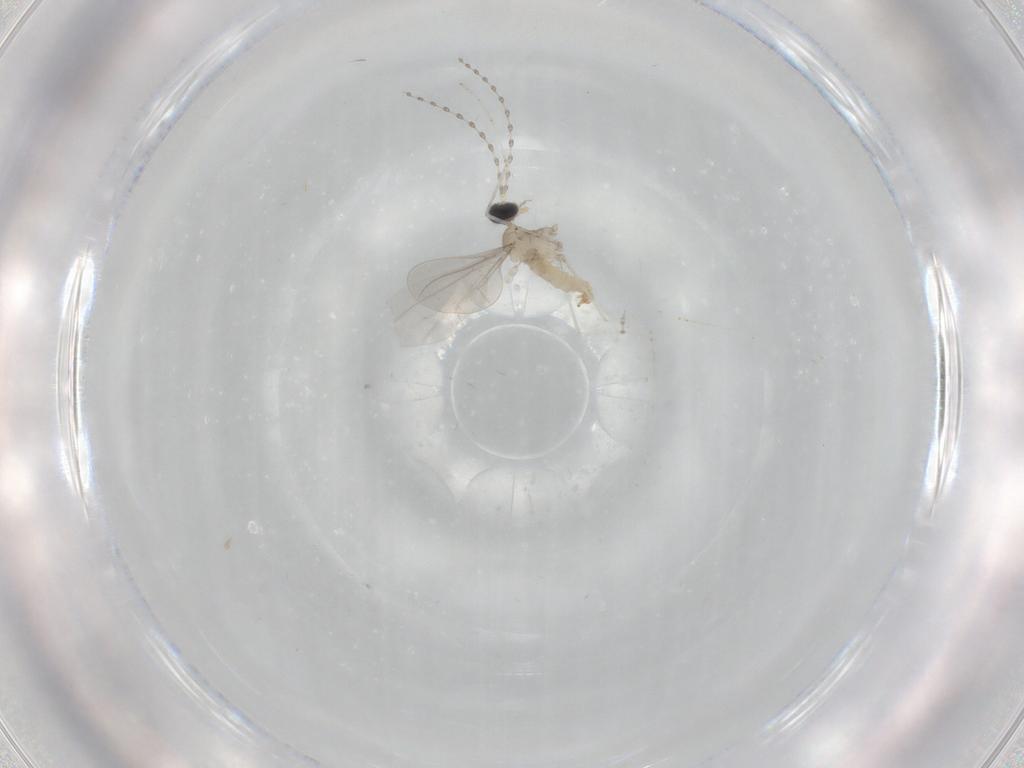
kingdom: Animalia
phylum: Arthropoda
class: Insecta
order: Diptera
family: Cecidomyiidae
